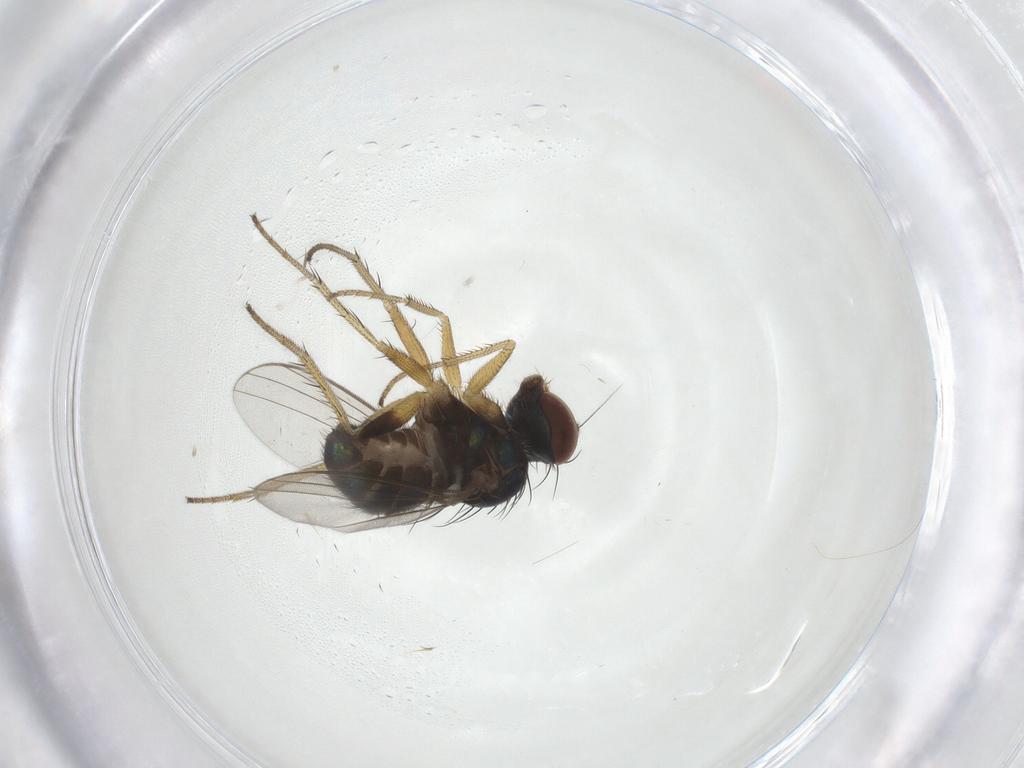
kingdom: Animalia
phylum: Arthropoda
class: Insecta
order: Diptera
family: Dolichopodidae
